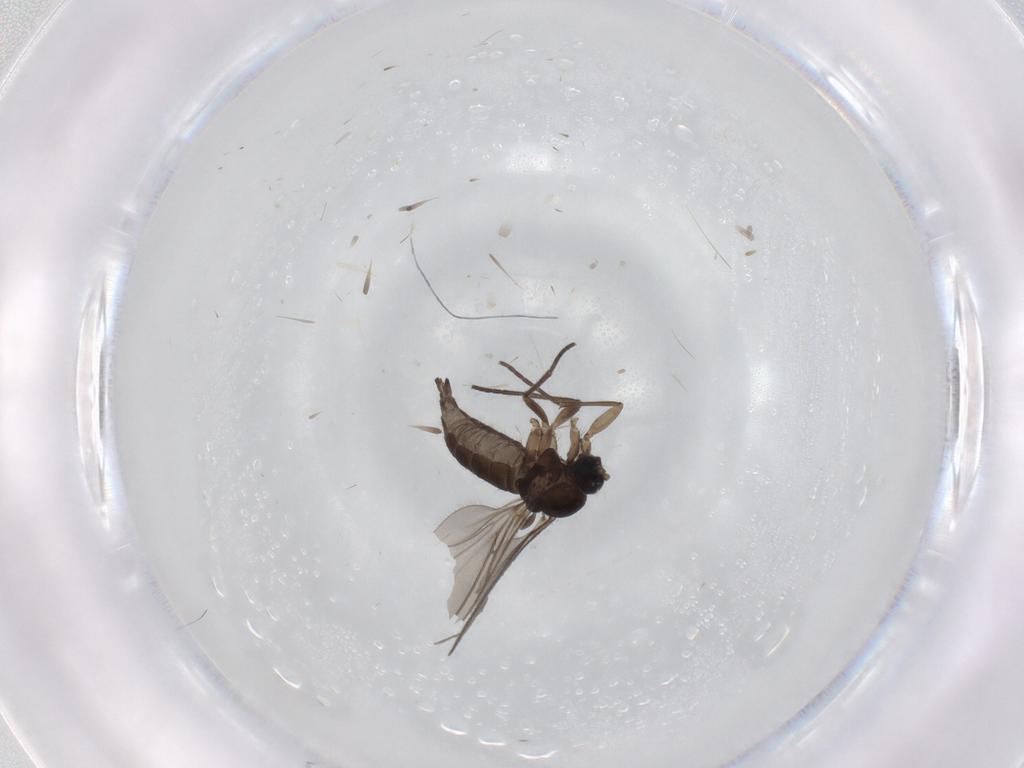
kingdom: Animalia
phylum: Arthropoda
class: Insecta
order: Diptera
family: Sciaridae
